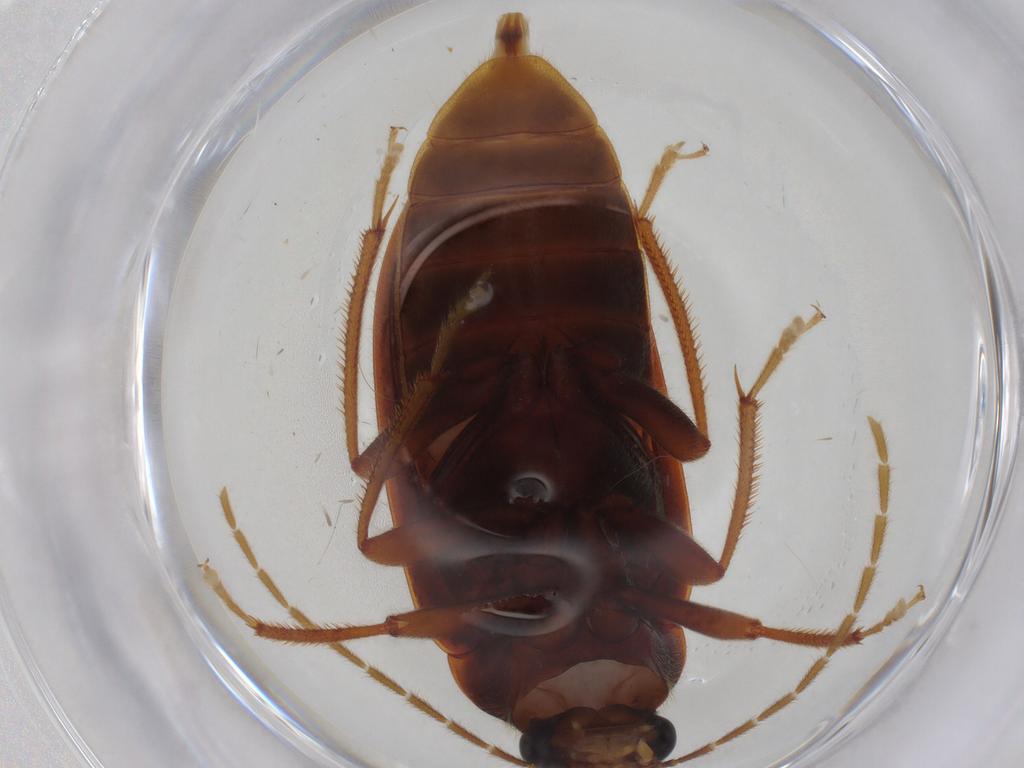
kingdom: Animalia
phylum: Arthropoda
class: Insecta
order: Coleoptera
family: Ptilodactylidae
